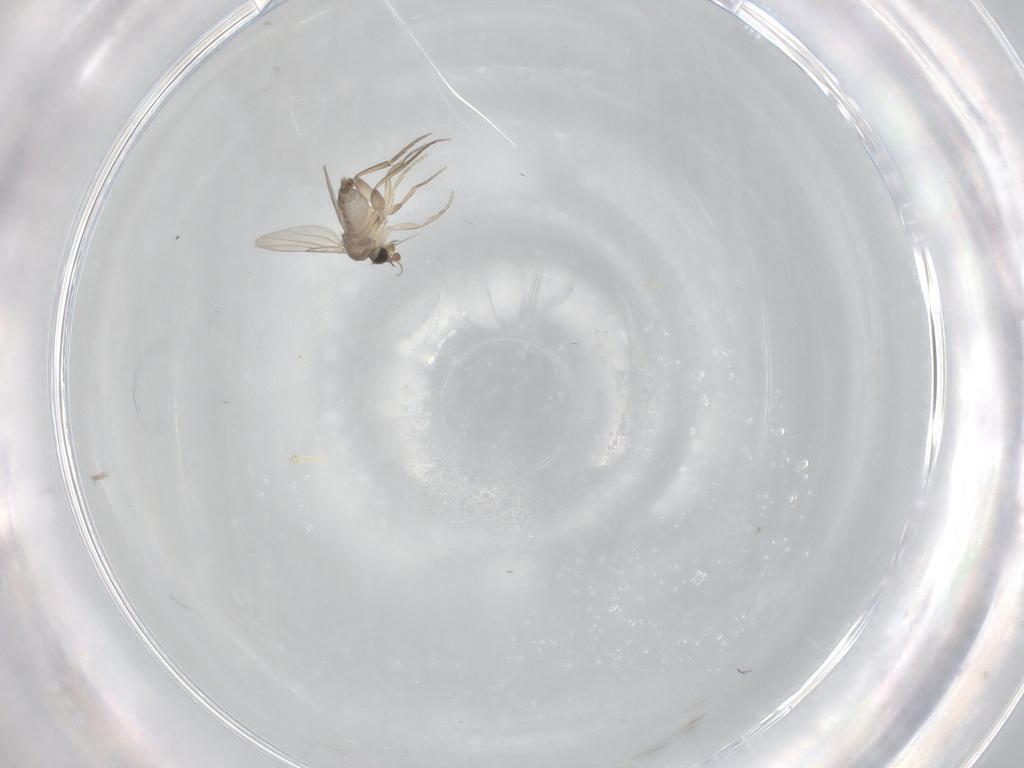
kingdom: Animalia
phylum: Arthropoda
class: Insecta
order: Diptera
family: Phoridae
